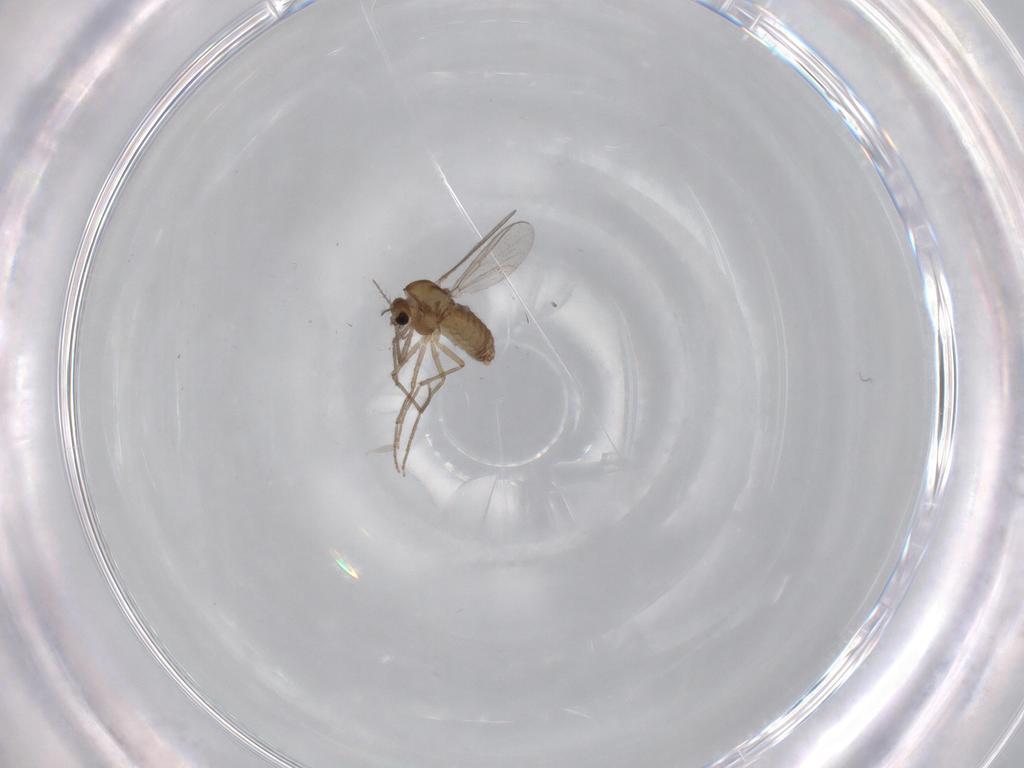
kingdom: Animalia
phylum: Arthropoda
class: Insecta
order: Diptera
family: Chironomidae
